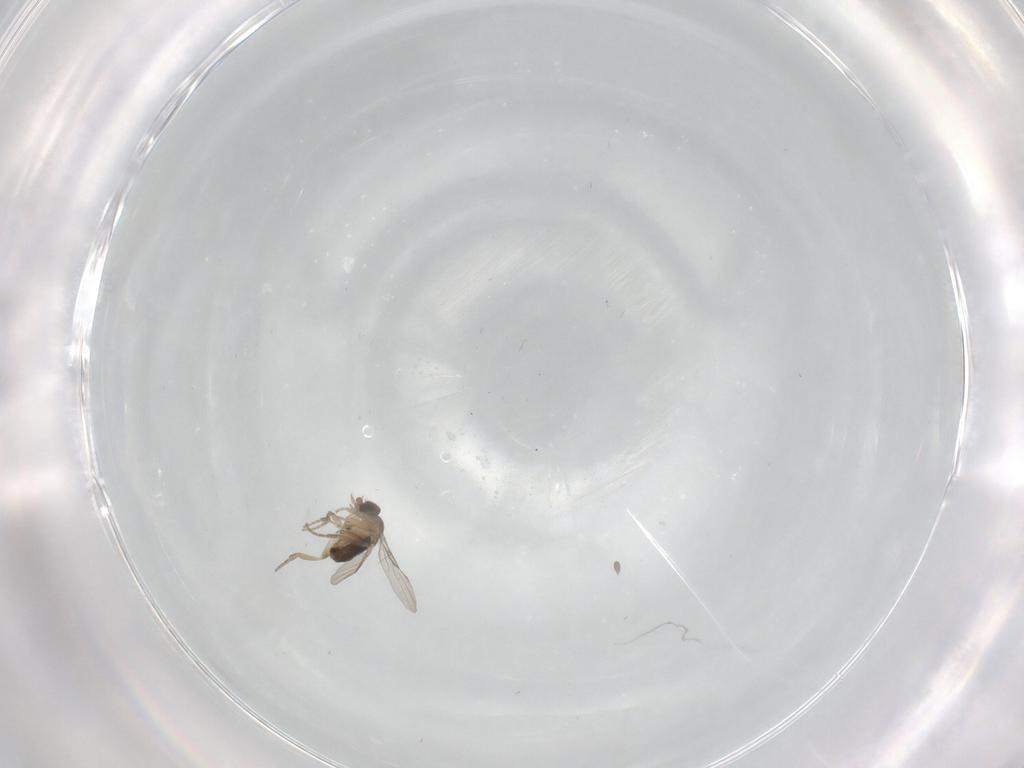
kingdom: Animalia
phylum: Arthropoda
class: Insecta
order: Diptera
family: Phoridae
